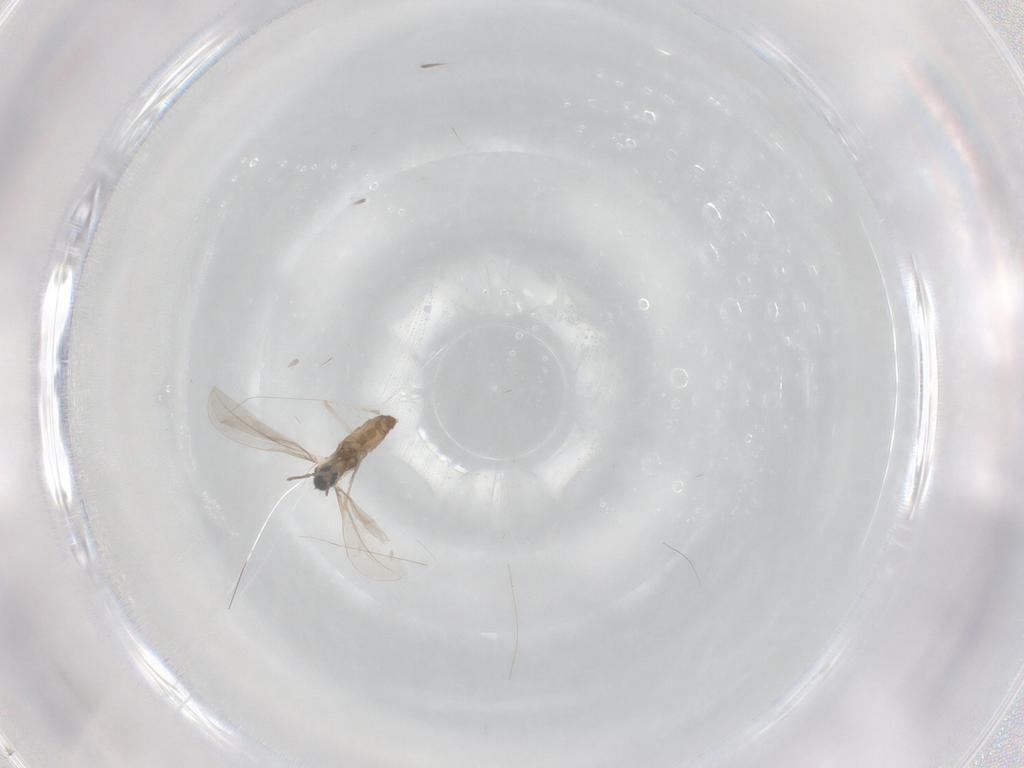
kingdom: Animalia
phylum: Arthropoda
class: Insecta
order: Diptera
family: Cecidomyiidae
